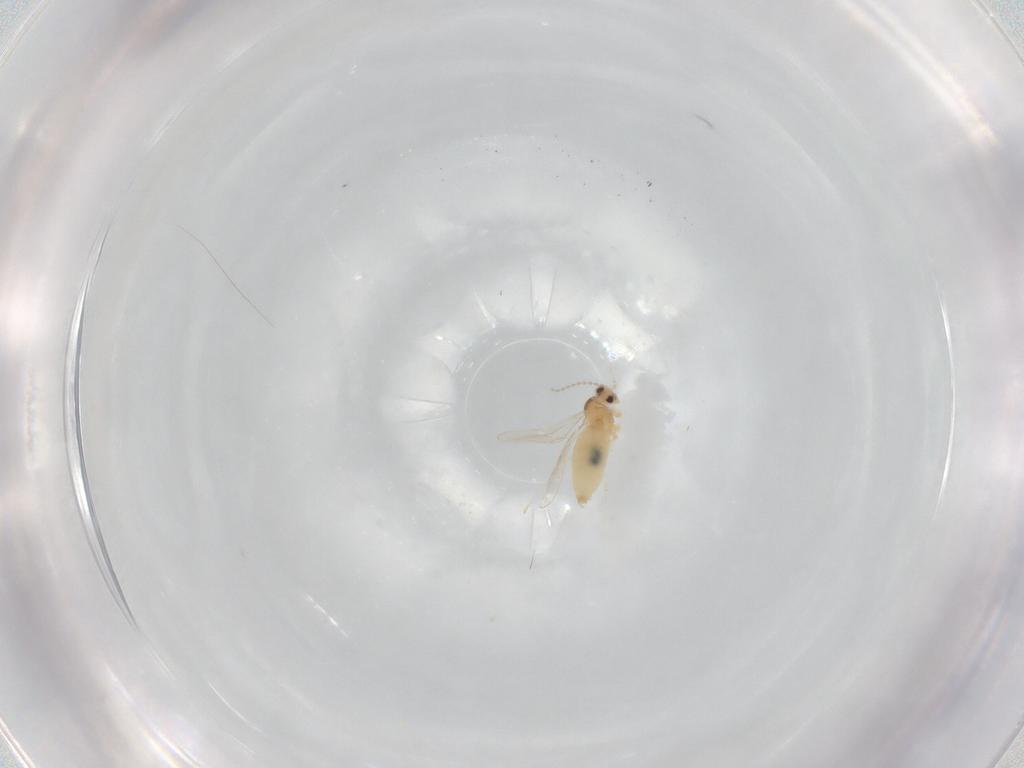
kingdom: Animalia
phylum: Arthropoda
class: Insecta
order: Diptera
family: Cecidomyiidae
